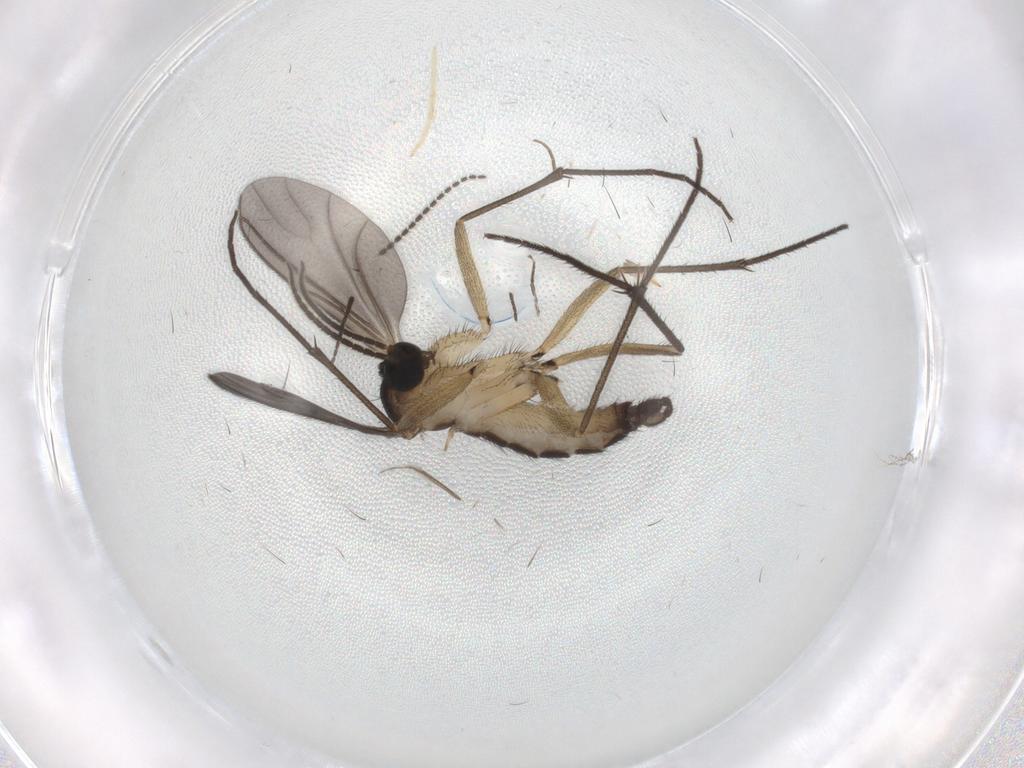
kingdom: Animalia
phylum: Arthropoda
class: Insecta
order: Diptera
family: Sciaridae
